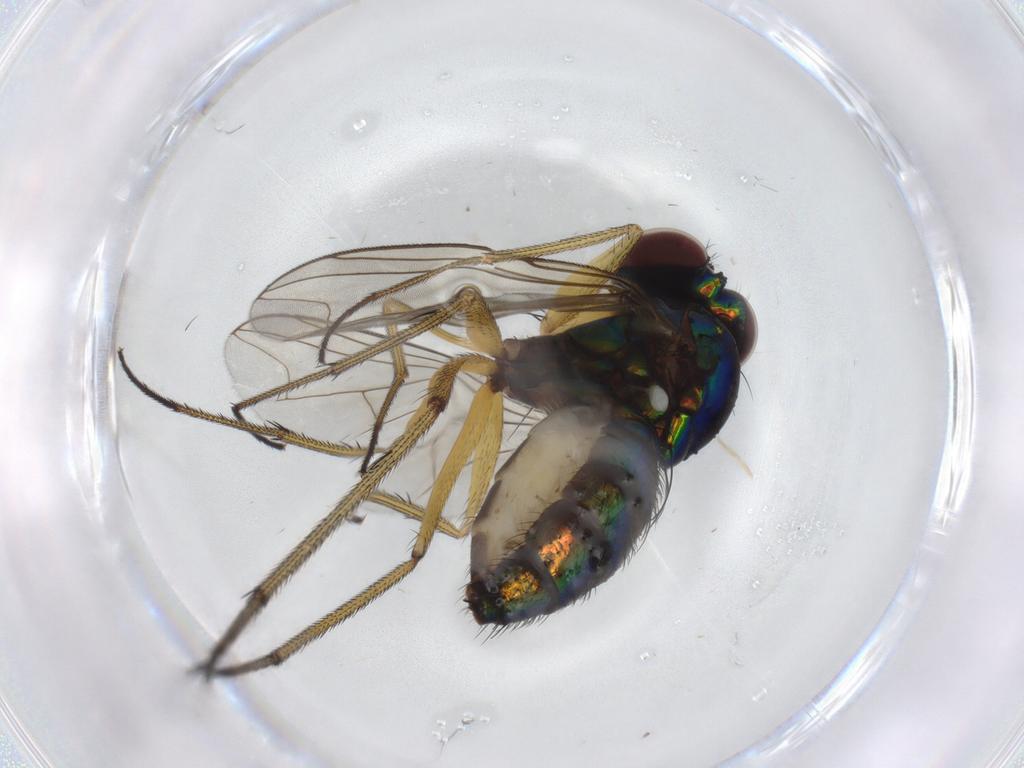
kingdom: Animalia
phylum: Arthropoda
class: Insecta
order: Diptera
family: Dolichopodidae
